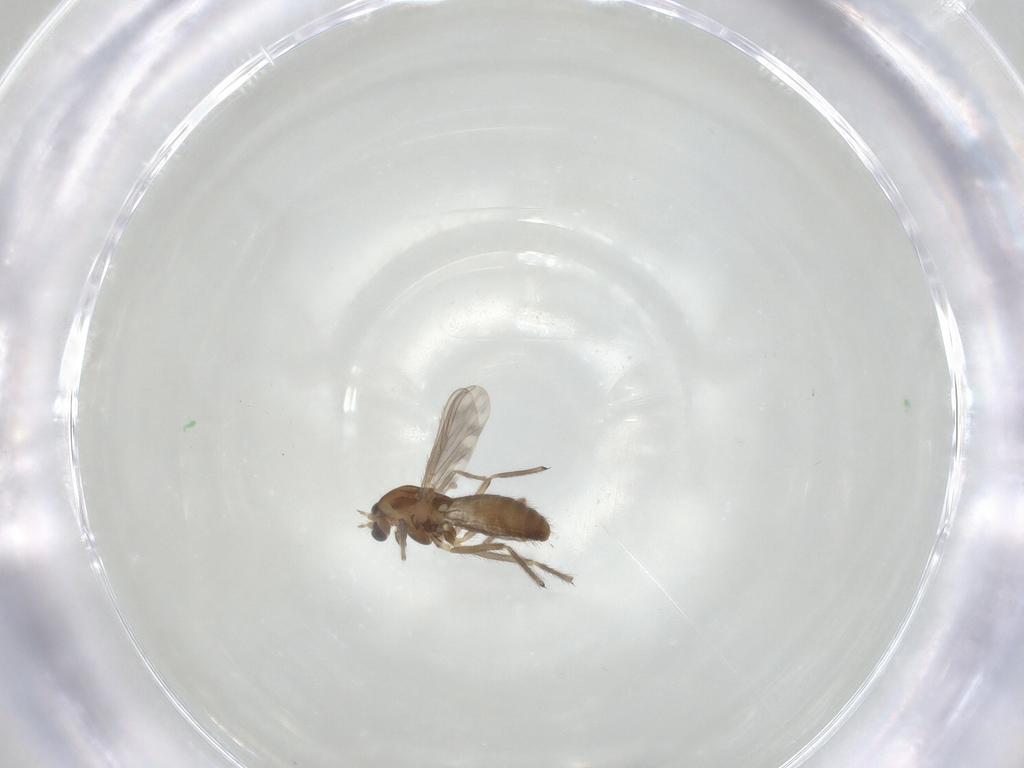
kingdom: Animalia
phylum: Arthropoda
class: Insecta
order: Diptera
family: Chironomidae
